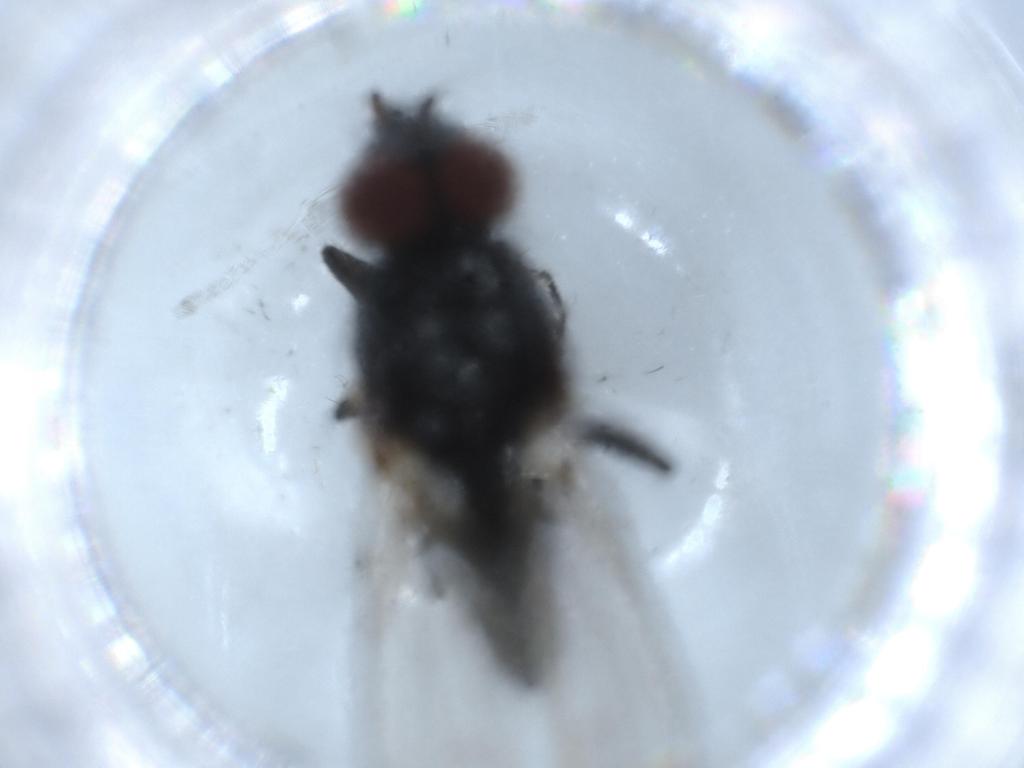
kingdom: Animalia
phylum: Arthropoda
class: Insecta
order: Diptera
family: Anthomyiidae
